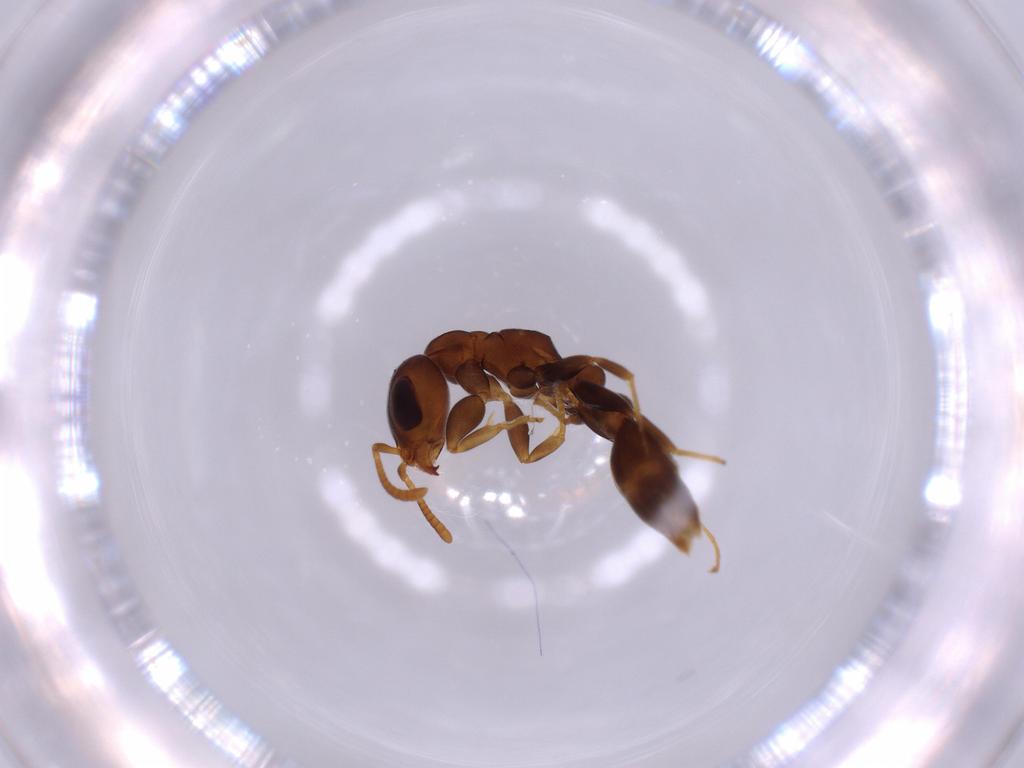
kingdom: Animalia
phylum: Arthropoda
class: Insecta
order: Hymenoptera
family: Formicidae
